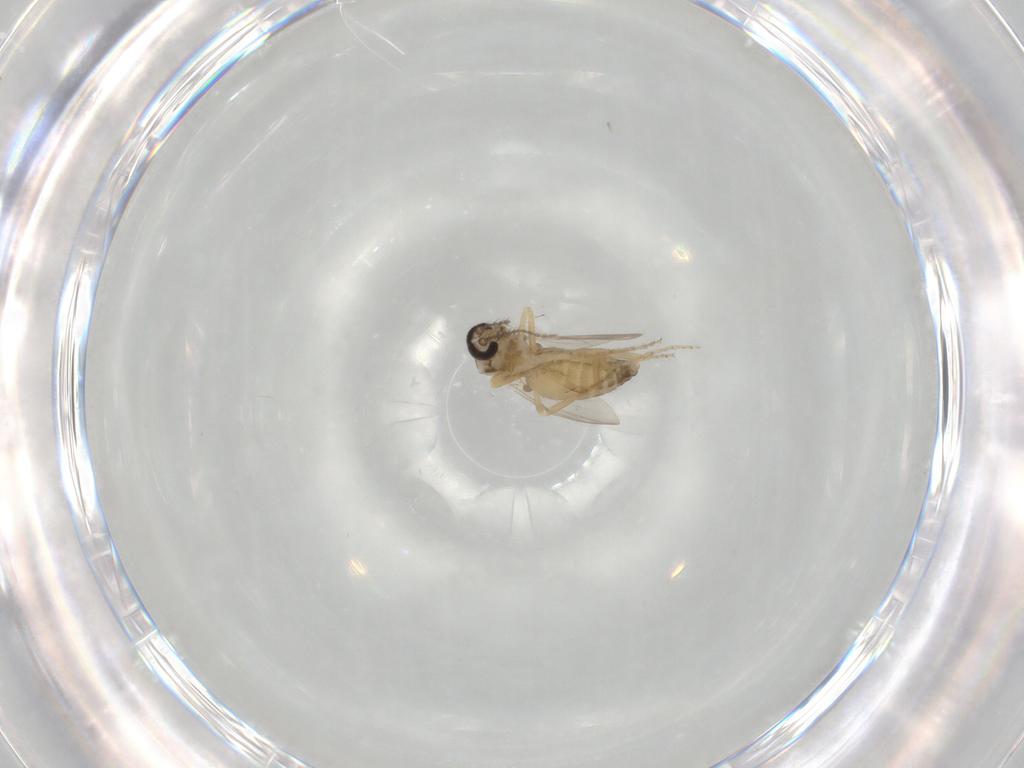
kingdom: Animalia
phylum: Arthropoda
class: Insecta
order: Diptera
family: Ceratopogonidae
